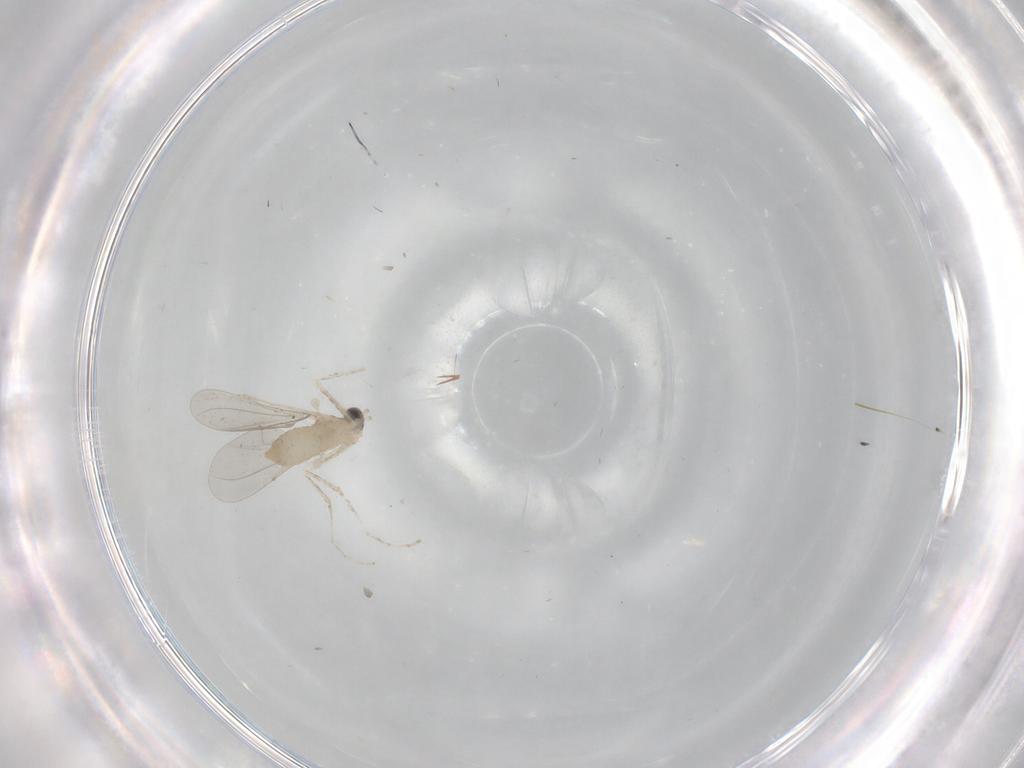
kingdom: Animalia
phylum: Arthropoda
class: Insecta
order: Diptera
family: Cecidomyiidae
